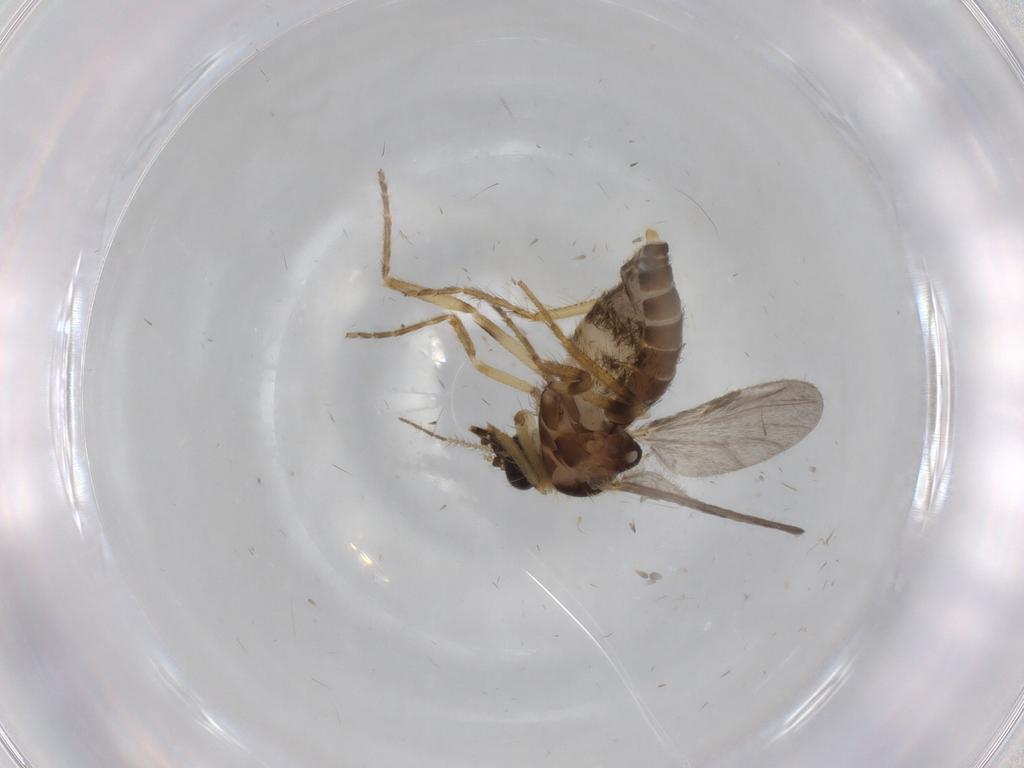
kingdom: Animalia
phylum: Arthropoda
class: Insecta
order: Diptera
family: Ceratopogonidae
